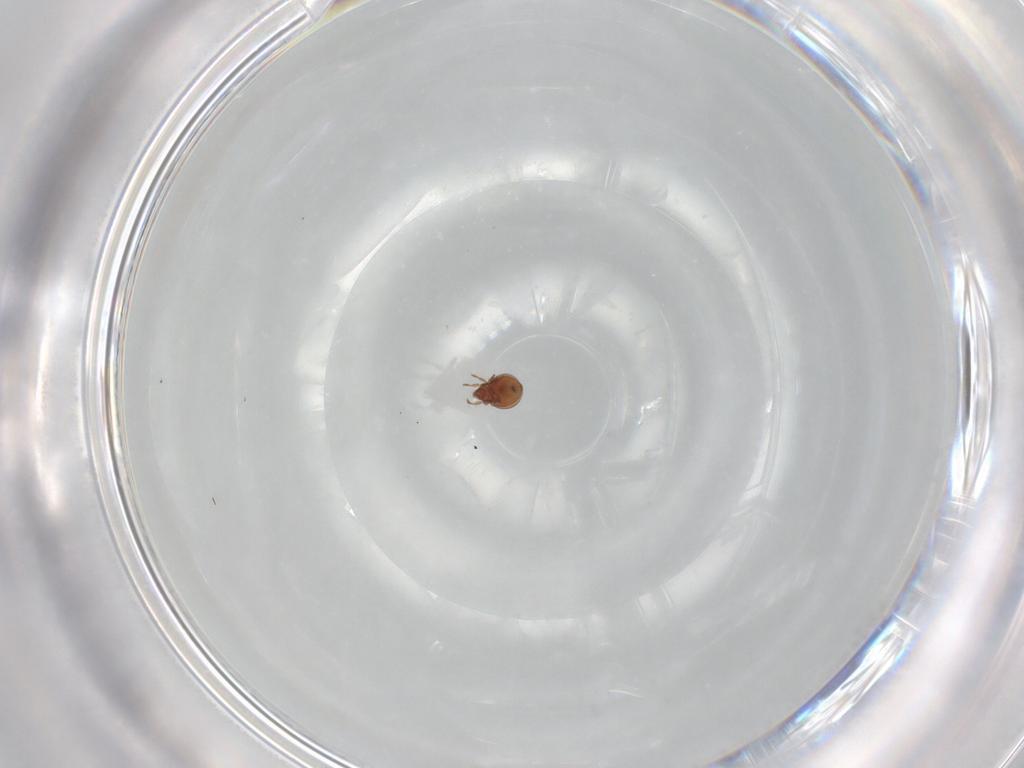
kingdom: Animalia
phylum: Arthropoda
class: Arachnida
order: Sarcoptiformes
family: Oribatulidae
